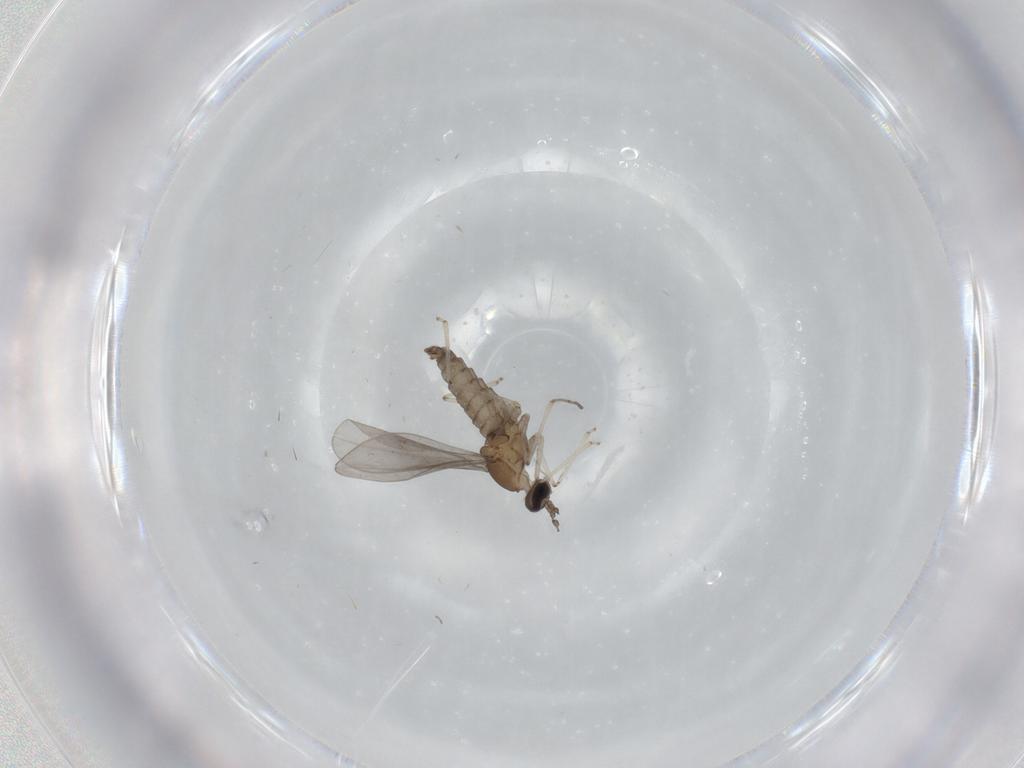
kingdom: Animalia
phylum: Arthropoda
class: Insecta
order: Diptera
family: Cecidomyiidae
